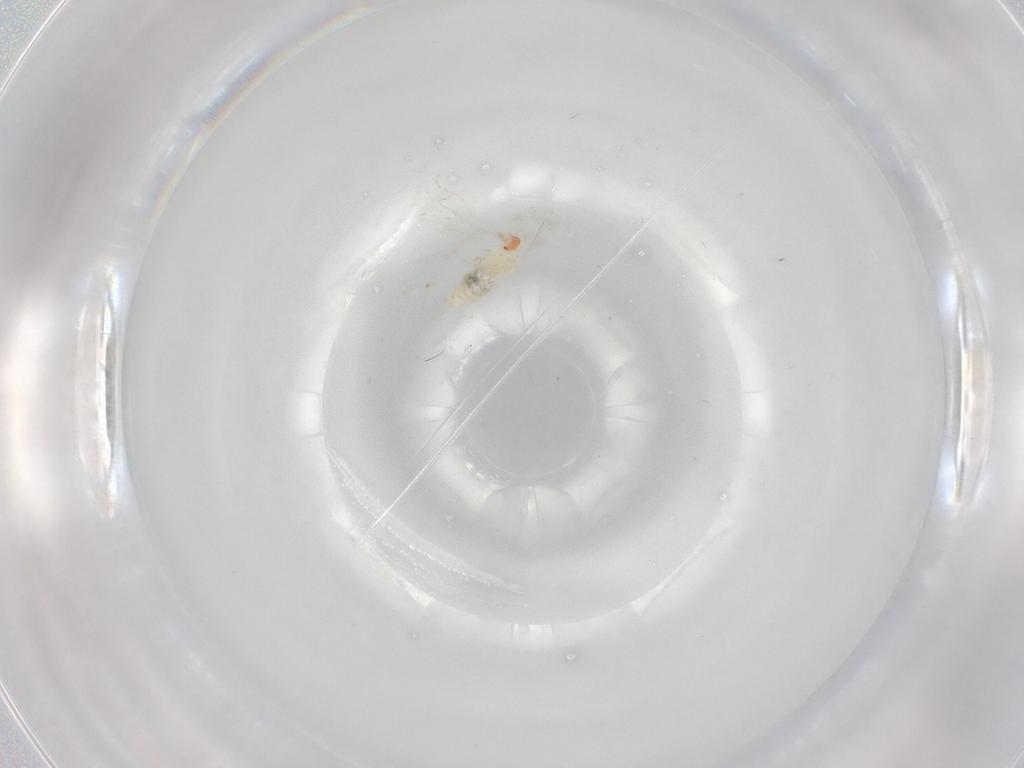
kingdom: Animalia
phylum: Arthropoda
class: Insecta
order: Diptera
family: Cecidomyiidae
